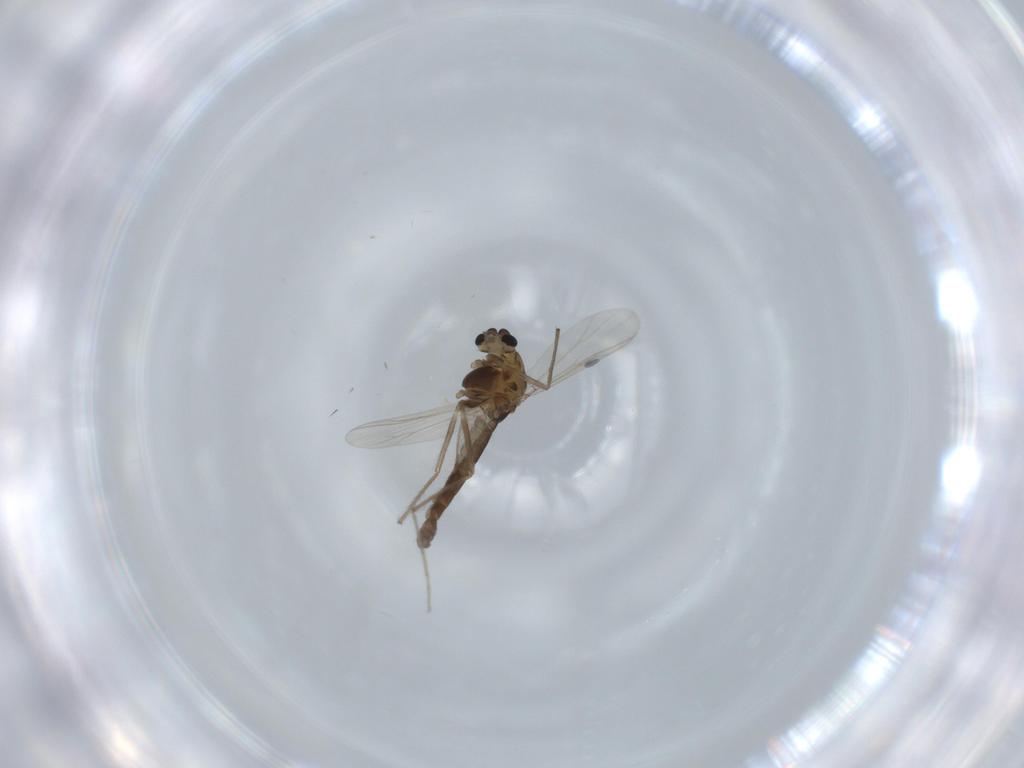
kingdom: Animalia
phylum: Arthropoda
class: Insecta
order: Diptera
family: Chironomidae
